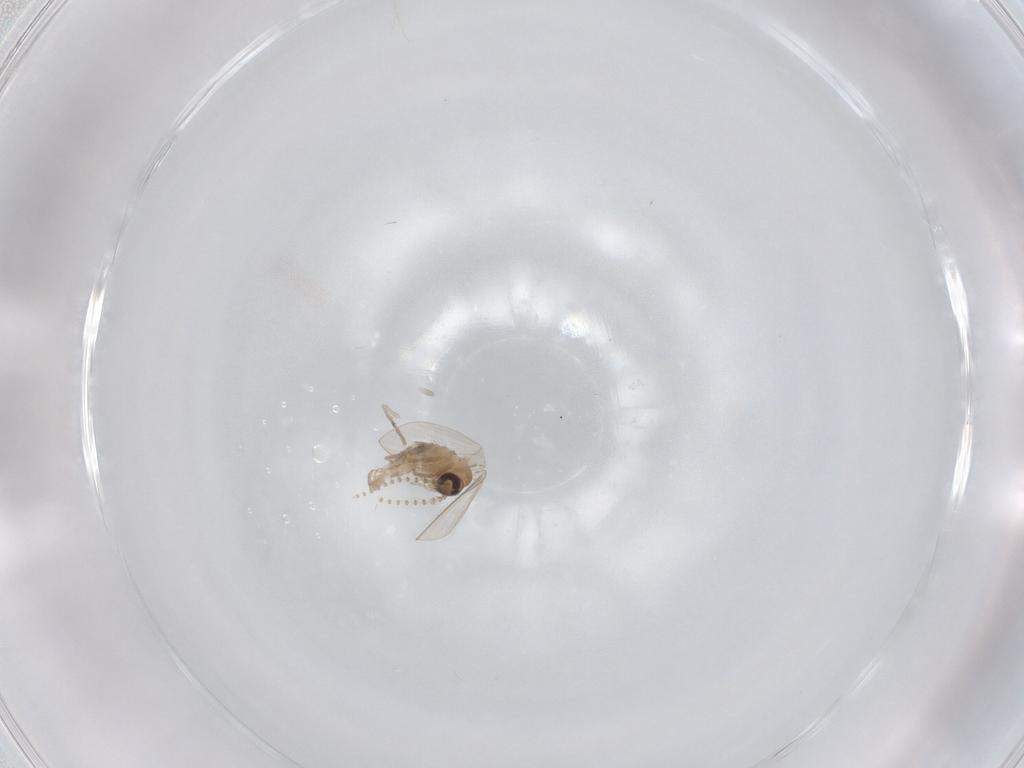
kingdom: Animalia
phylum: Arthropoda
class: Insecta
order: Diptera
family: Psychodidae
